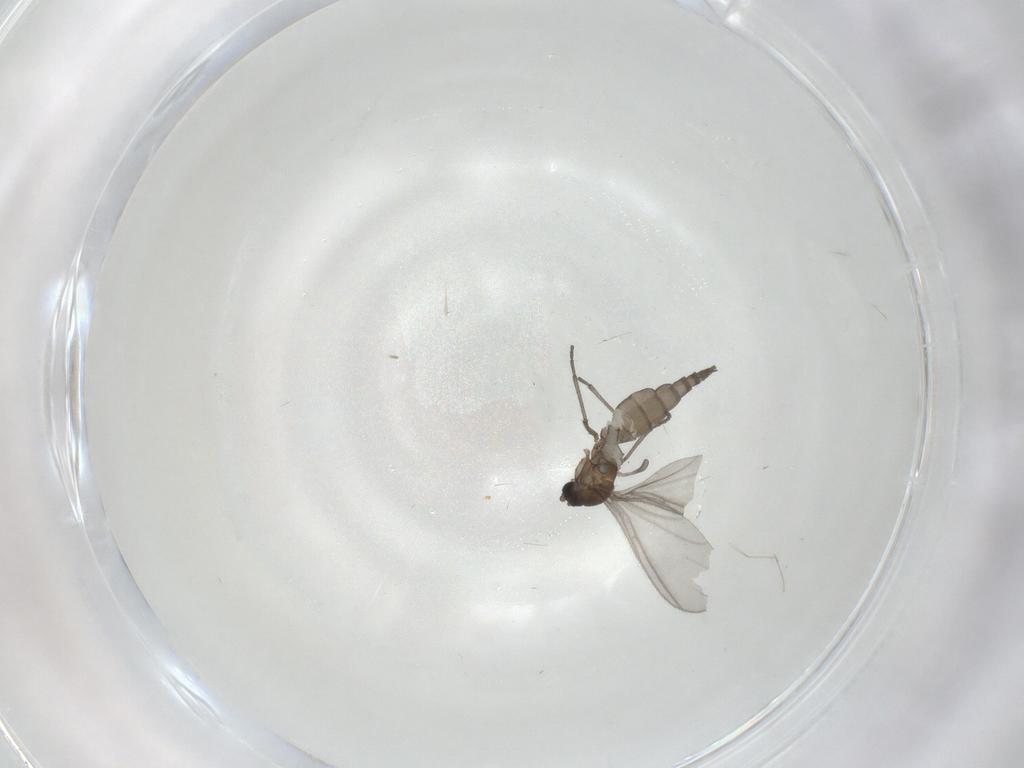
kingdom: Animalia
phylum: Arthropoda
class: Insecta
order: Diptera
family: Sciaridae
